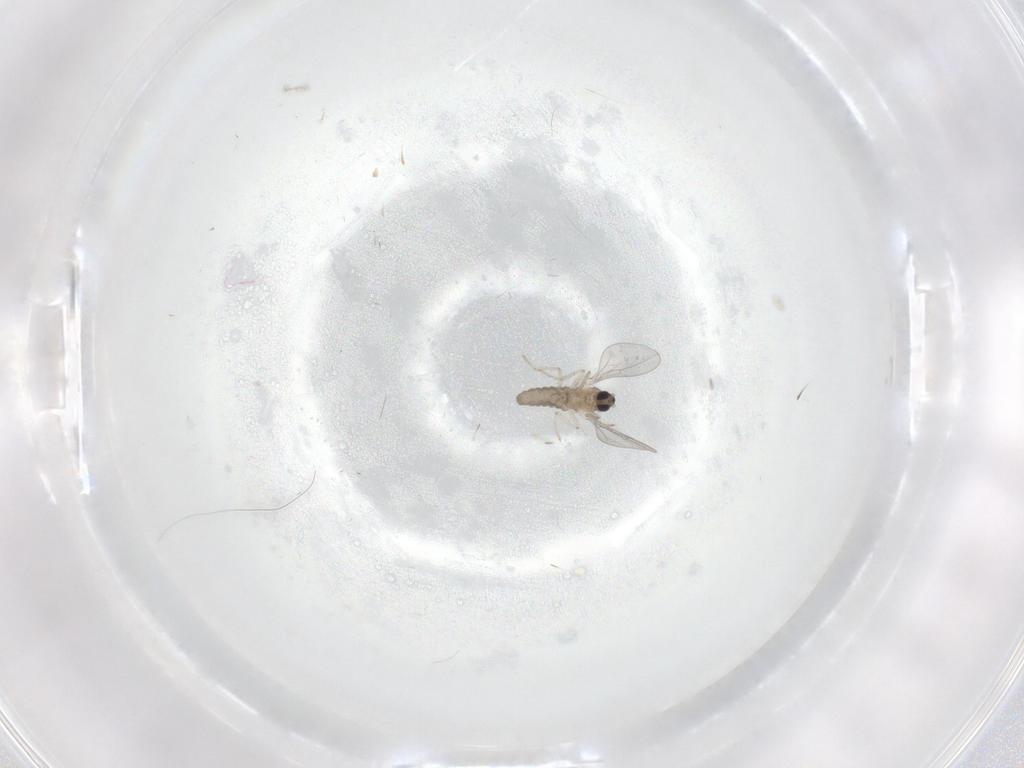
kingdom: Animalia
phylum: Arthropoda
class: Insecta
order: Diptera
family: Cecidomyiidae
